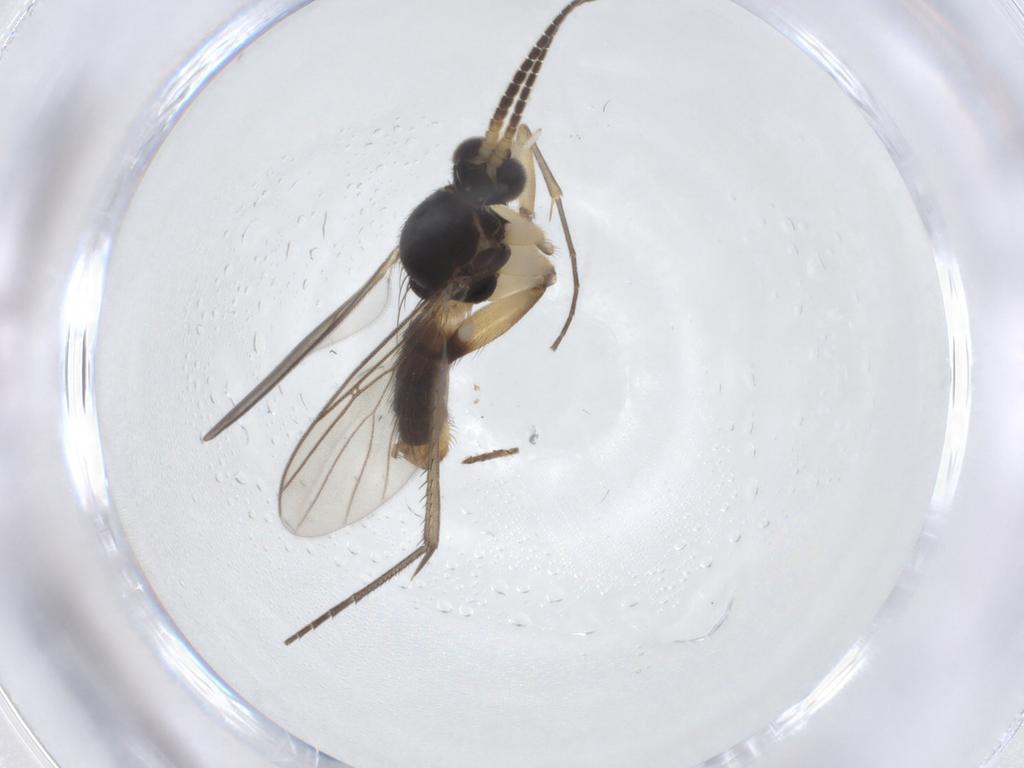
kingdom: Animalia
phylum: Arthropoda
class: Insecta
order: Diptera
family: Mycetophilidae
